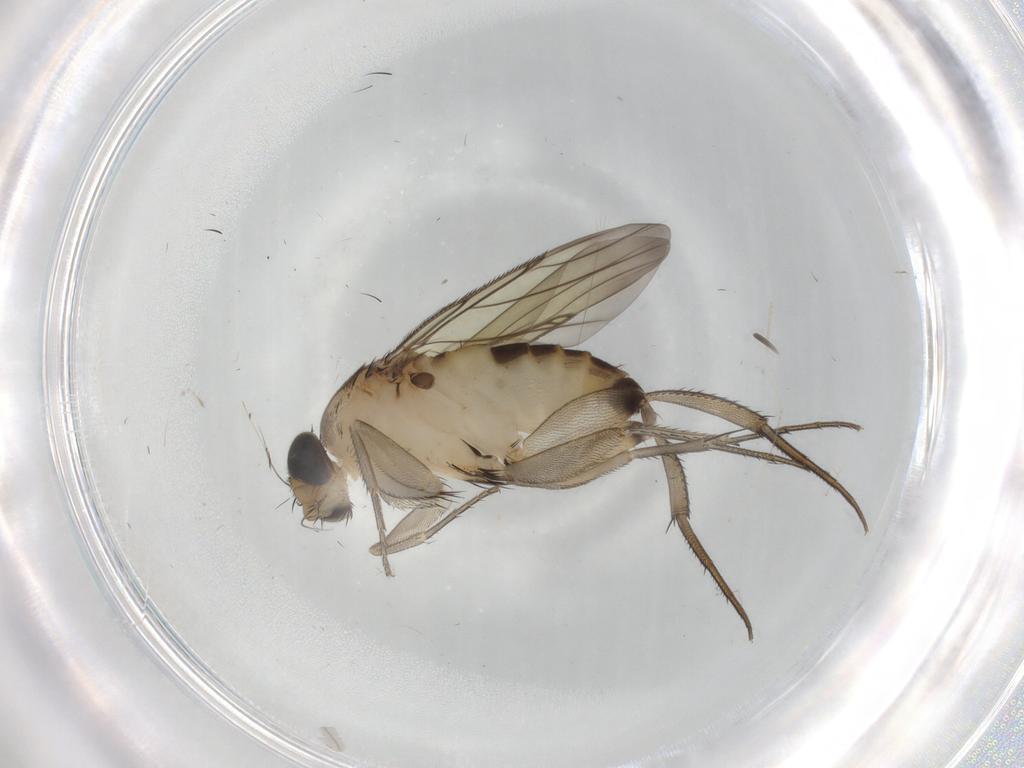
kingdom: Animalia
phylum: Arthropoda
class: Insecta
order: Diptera
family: Phoridae
